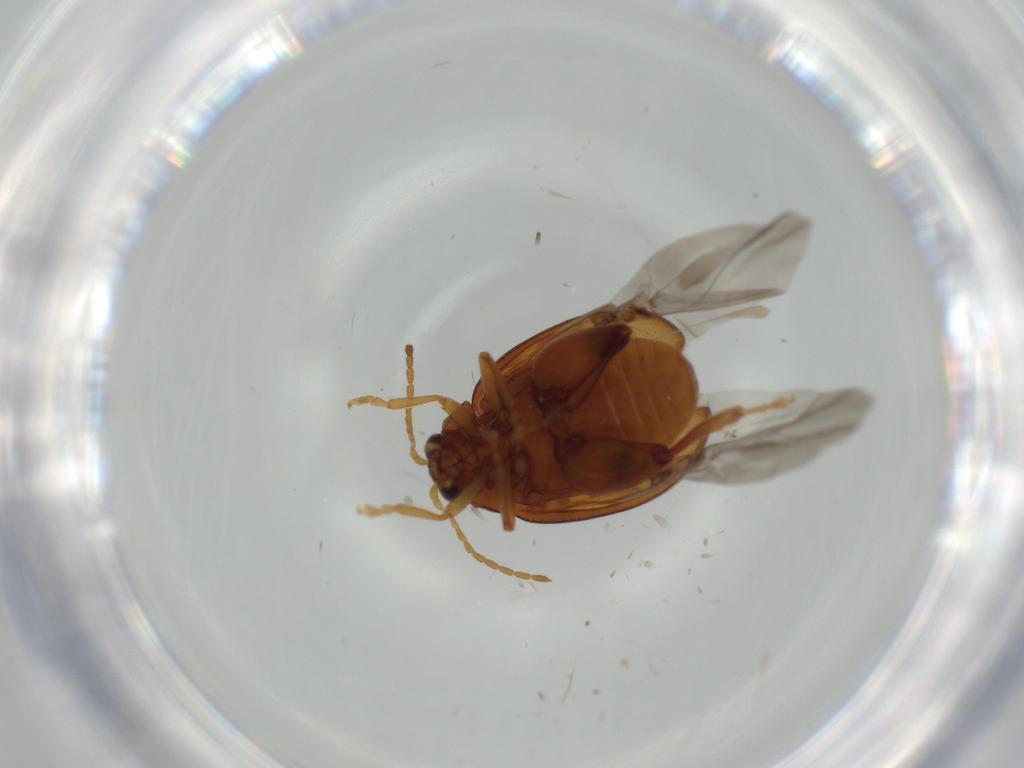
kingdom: Animalia
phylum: Arthropoda
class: Insecta
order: Coleoptera
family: Chrysomelidae
